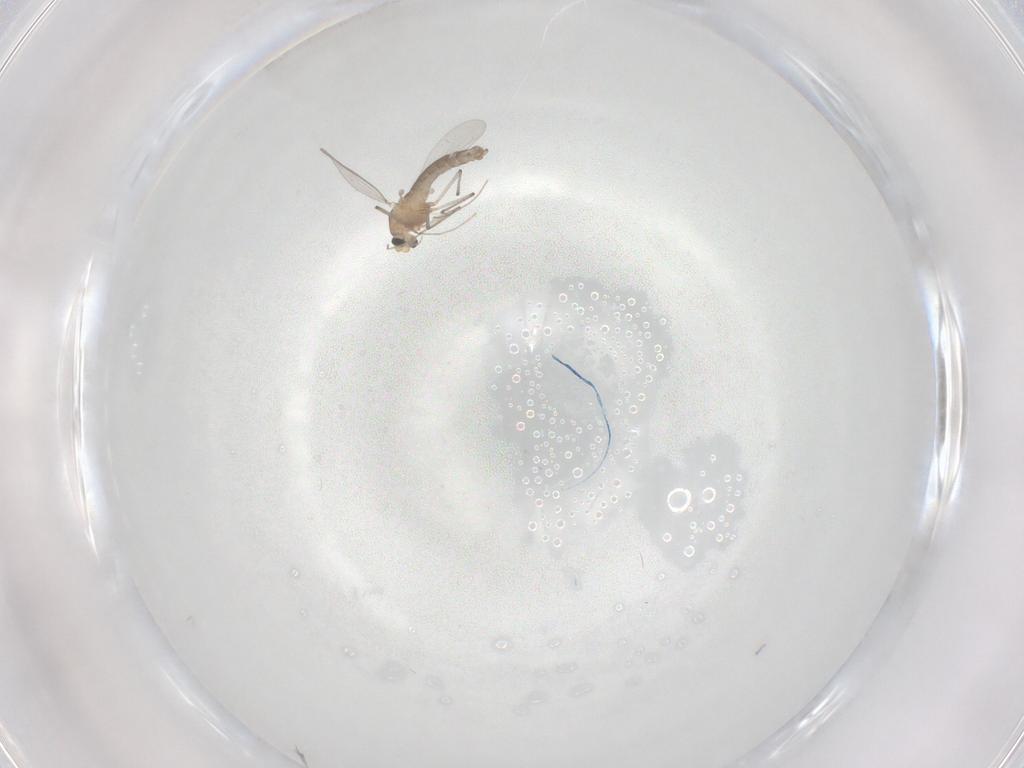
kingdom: Animalia
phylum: Arthropoda
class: Insecta
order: Diptera
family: Chironomidae
